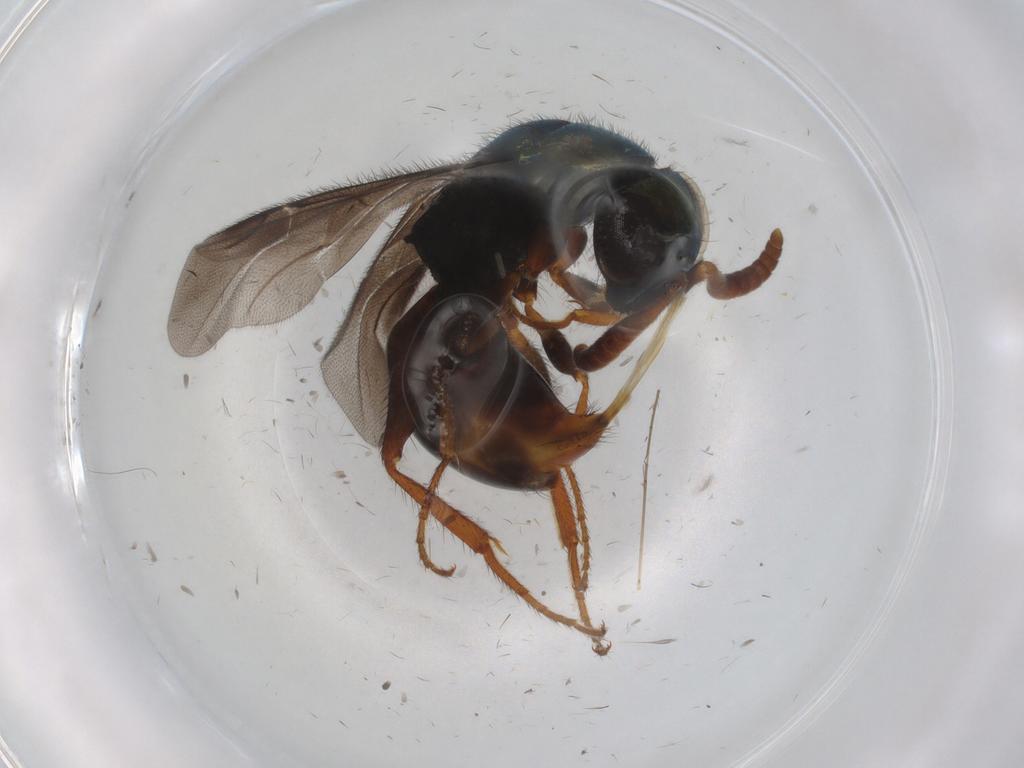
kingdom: Animalia
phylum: Arthropoda
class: Insecta
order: Hymenoptera
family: Chrysididae
